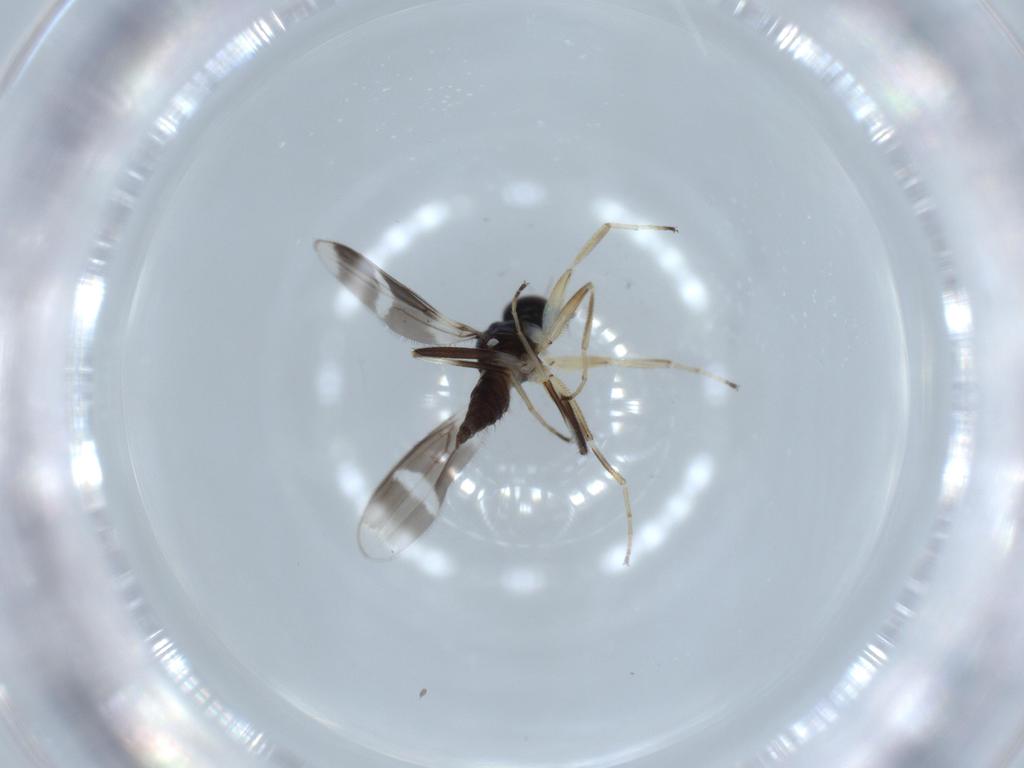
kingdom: Animalia
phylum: Arthropoda
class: Insecta
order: Diptera
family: Hybotidae
